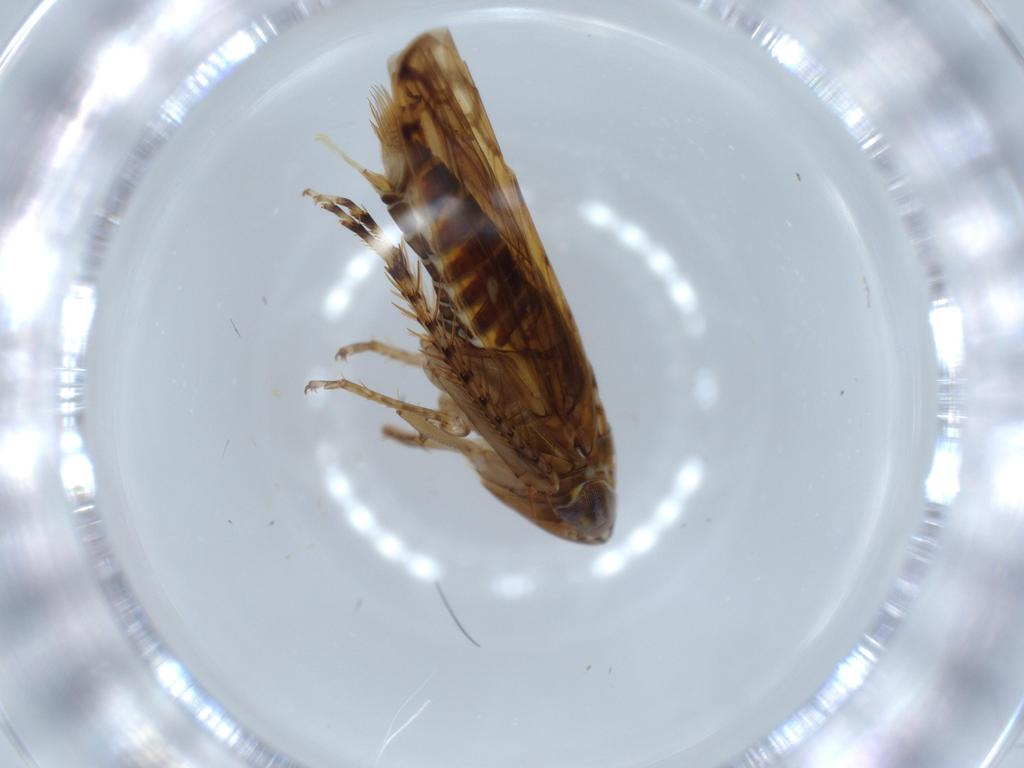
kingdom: Animalia
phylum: Arthropoda
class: Insecta
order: Hemiptera
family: Cicadellidae
